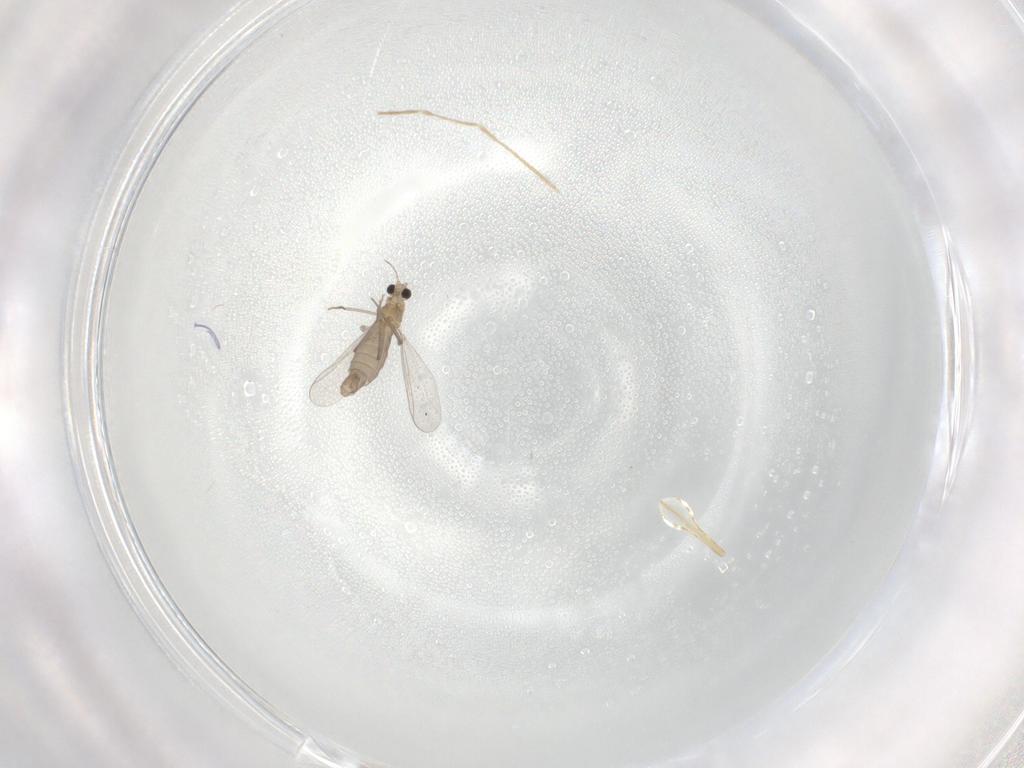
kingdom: Animalia
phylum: Arthropoda
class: Insecta
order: Diptera
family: Chironomidae
